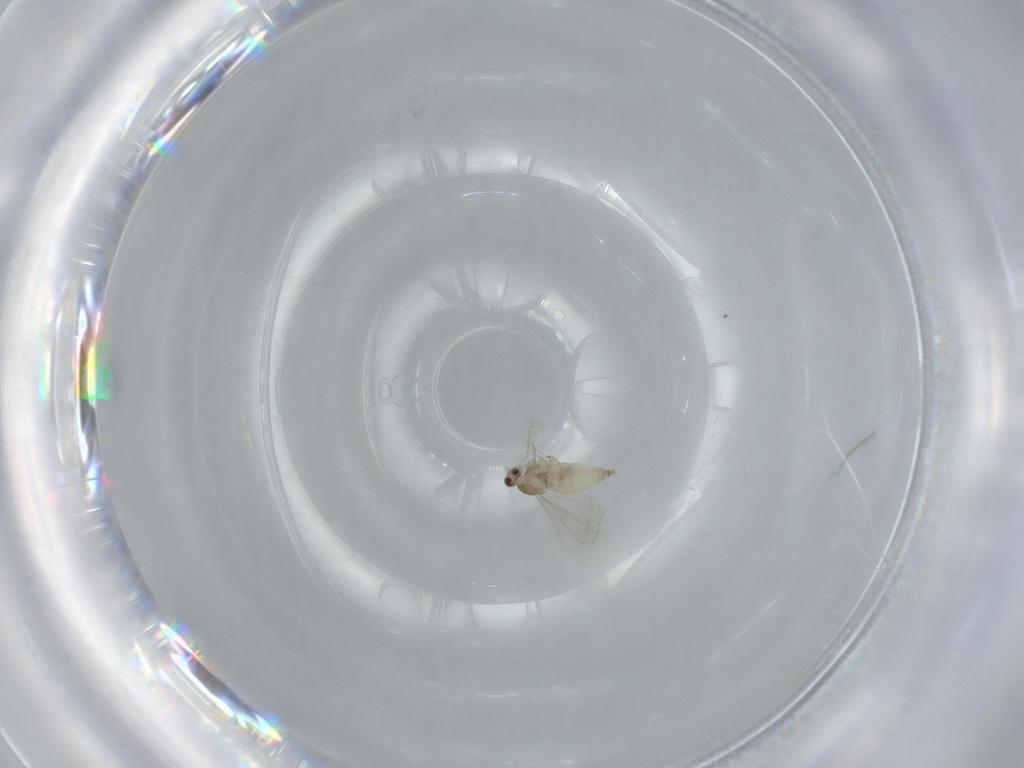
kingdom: Animalia
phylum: Arthropoda
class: Insecta
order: Diptera
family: Cecidomyiidae
